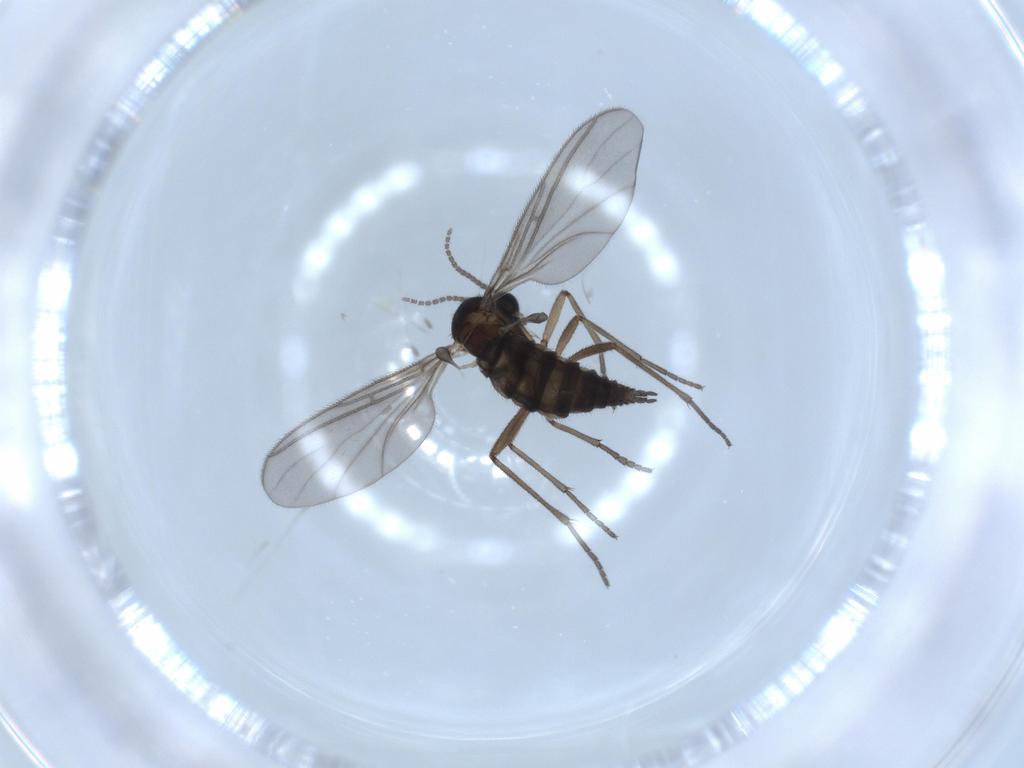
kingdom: Animalia
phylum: Arthropoda
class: Insecta
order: Diptera
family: Sciaridae
